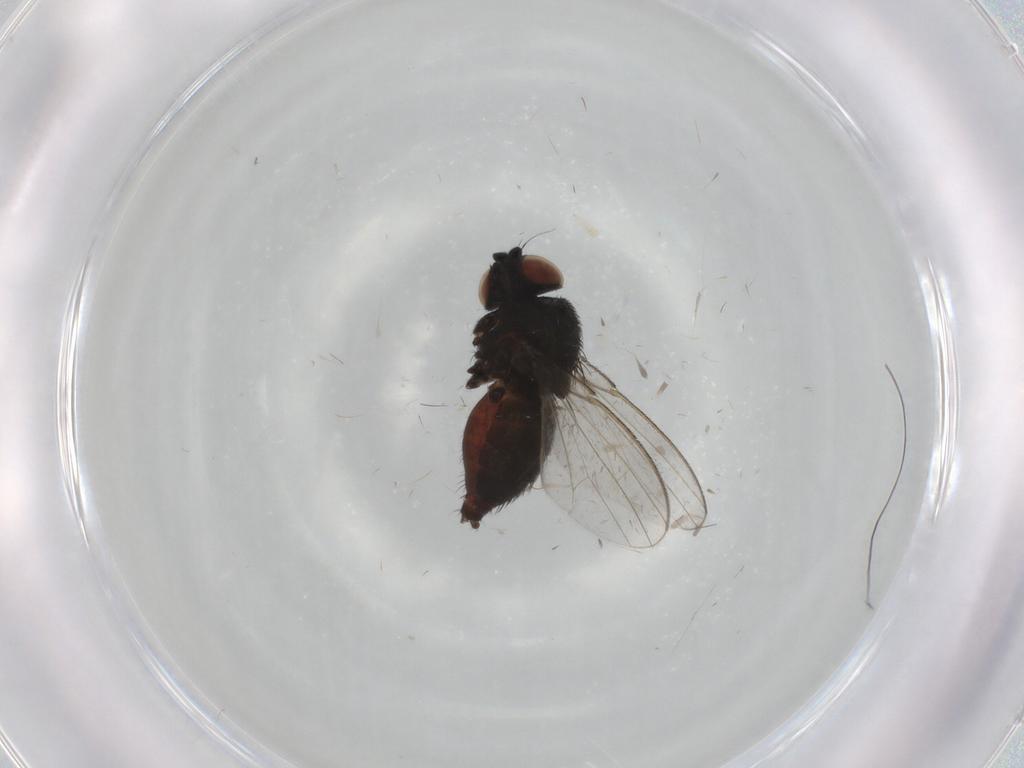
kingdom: Animalia
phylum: Arthropoda
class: Insecta
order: Diptera
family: Milichiidae
